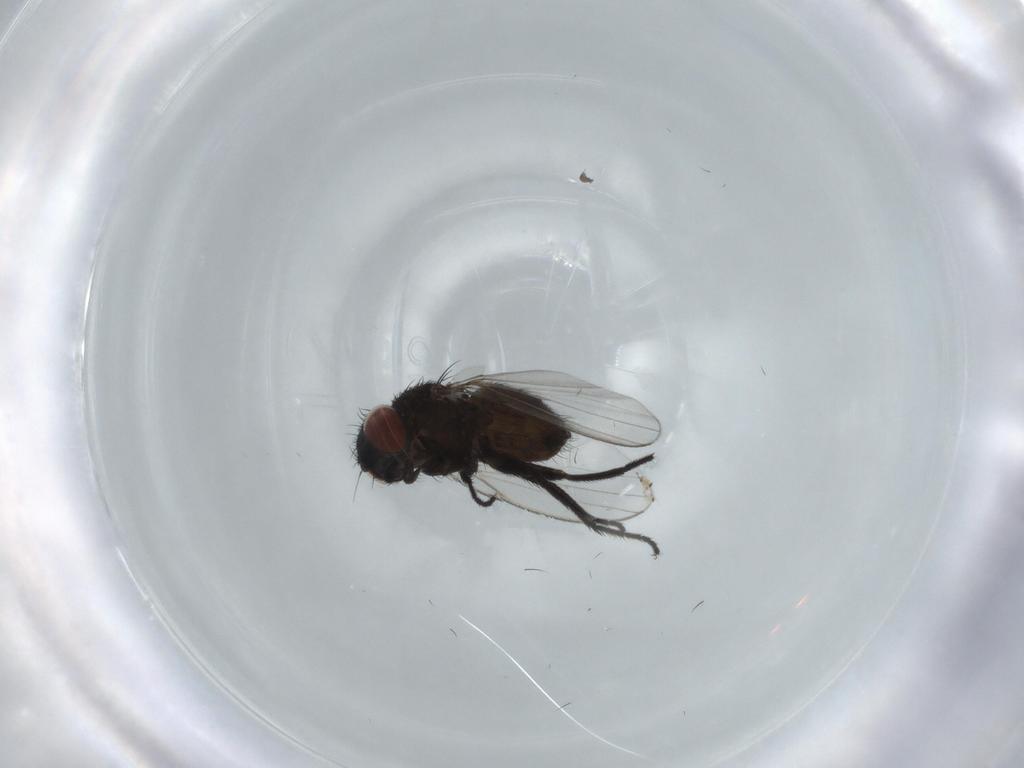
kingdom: Animalia
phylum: Arthropoda
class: Insecta
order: Diptera
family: Milichiidae
